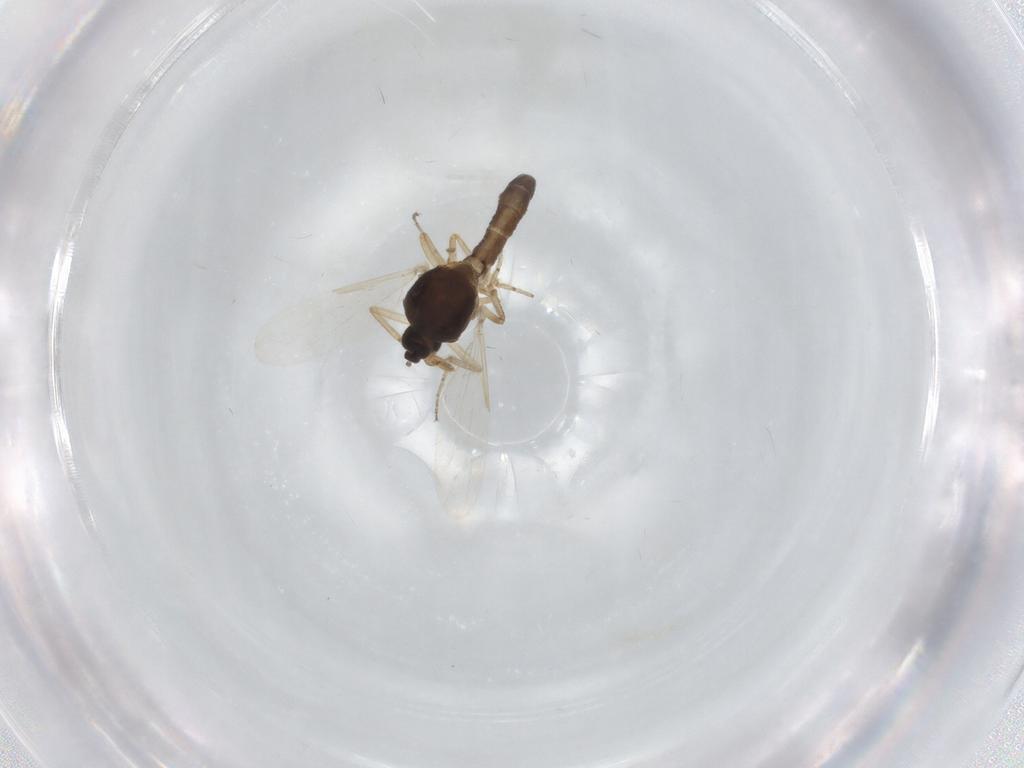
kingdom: Animalia
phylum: Arthropoda
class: Insecta
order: Diptera
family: Ceratopogonidae
